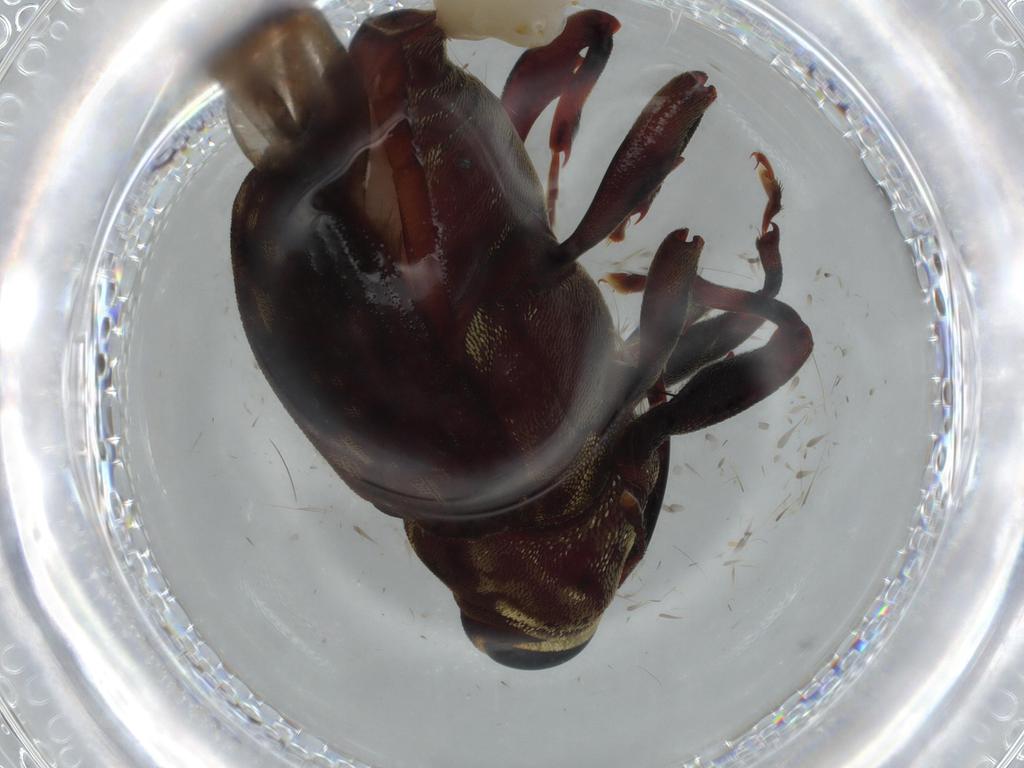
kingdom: Animalia
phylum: Arthropoda
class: Insecta
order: Coleoptera
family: Curculionidae
